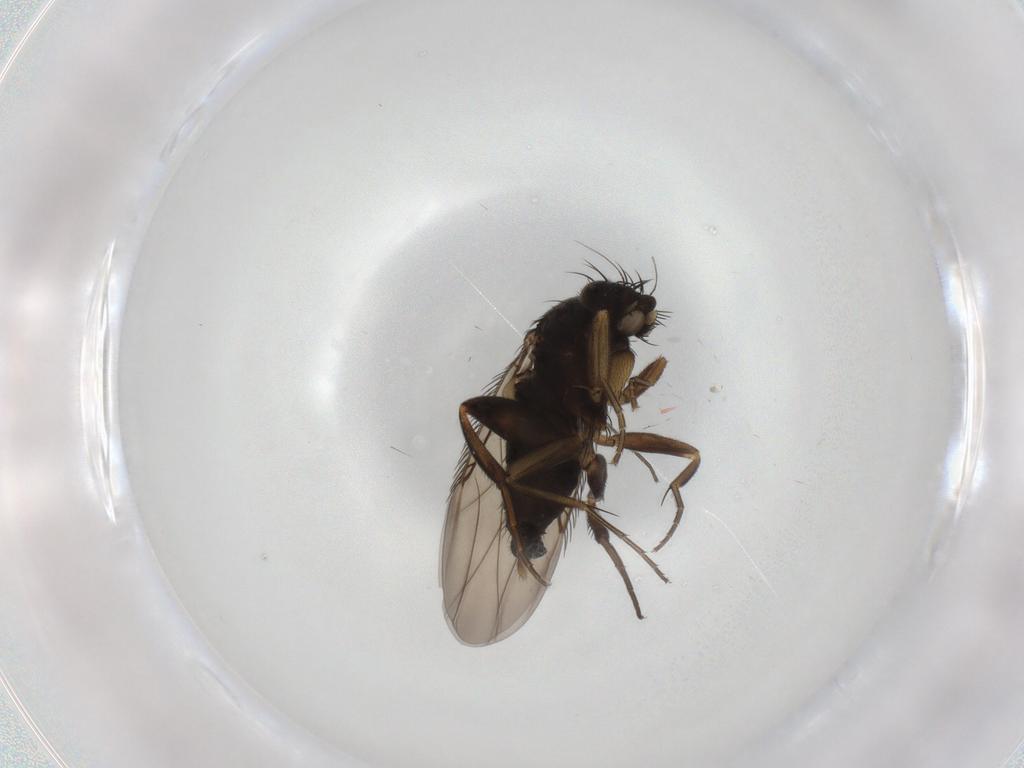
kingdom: Animalia
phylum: Arthropoda
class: Insecta
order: Diptera
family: Phoridae
